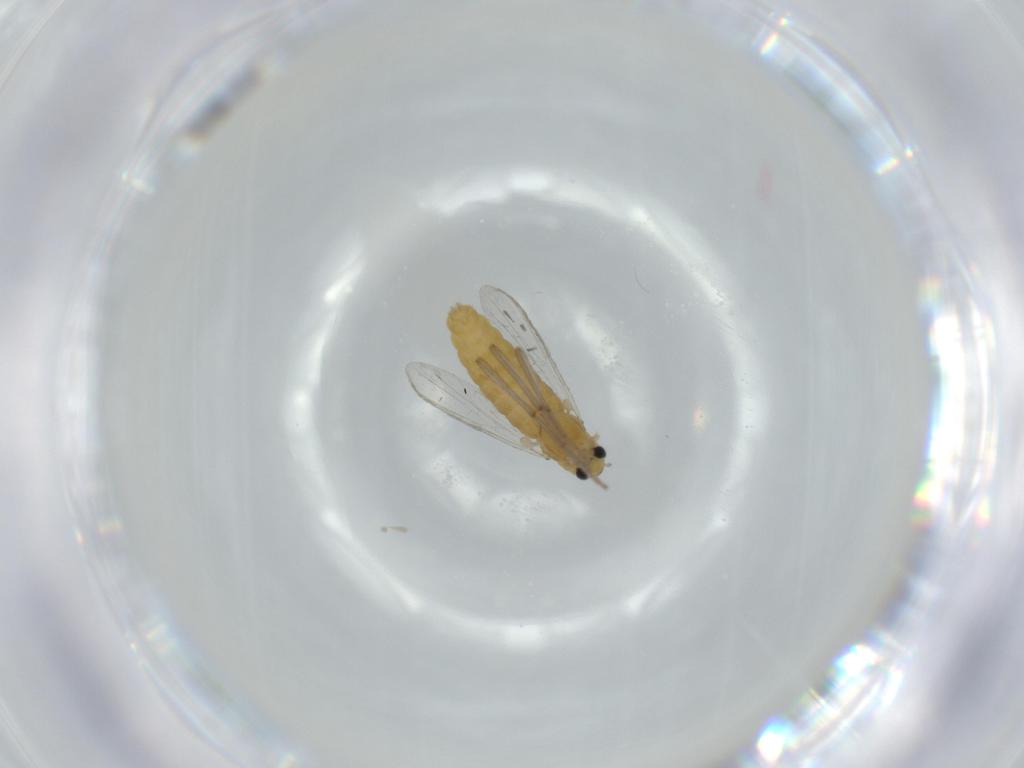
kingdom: Animalia
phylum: Arthropoda
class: Insecta
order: Diptera
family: Chironomidae
